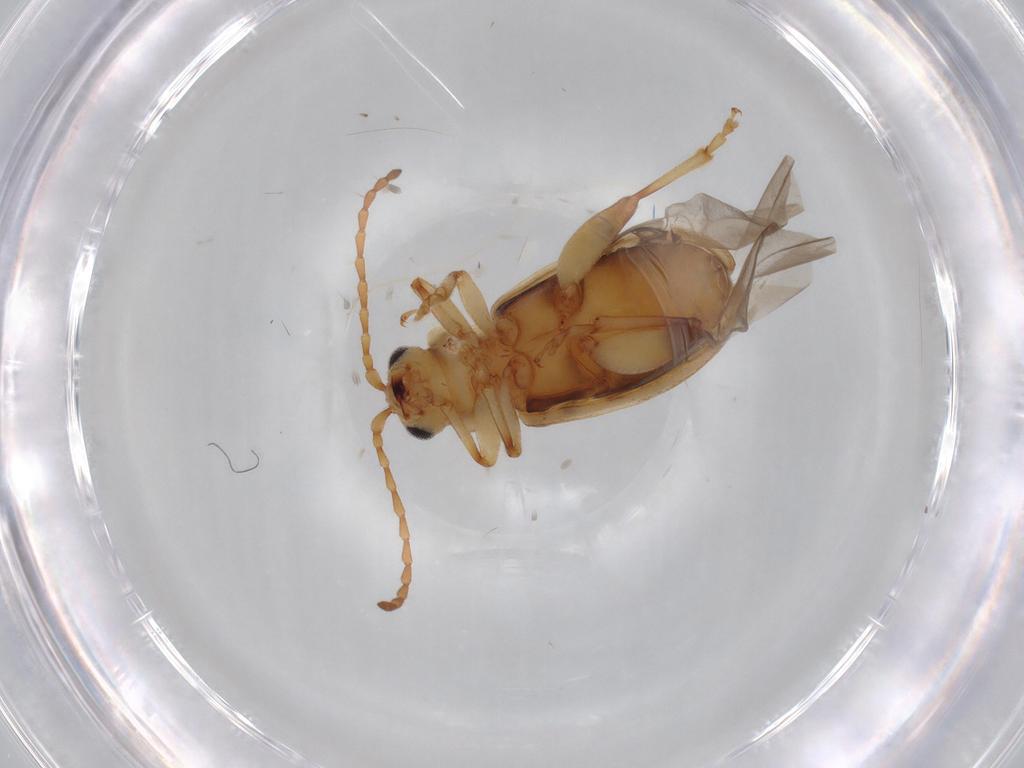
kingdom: Animalia
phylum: Arthropoda
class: Insecta
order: Coleoptera
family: Chrysomelidae
